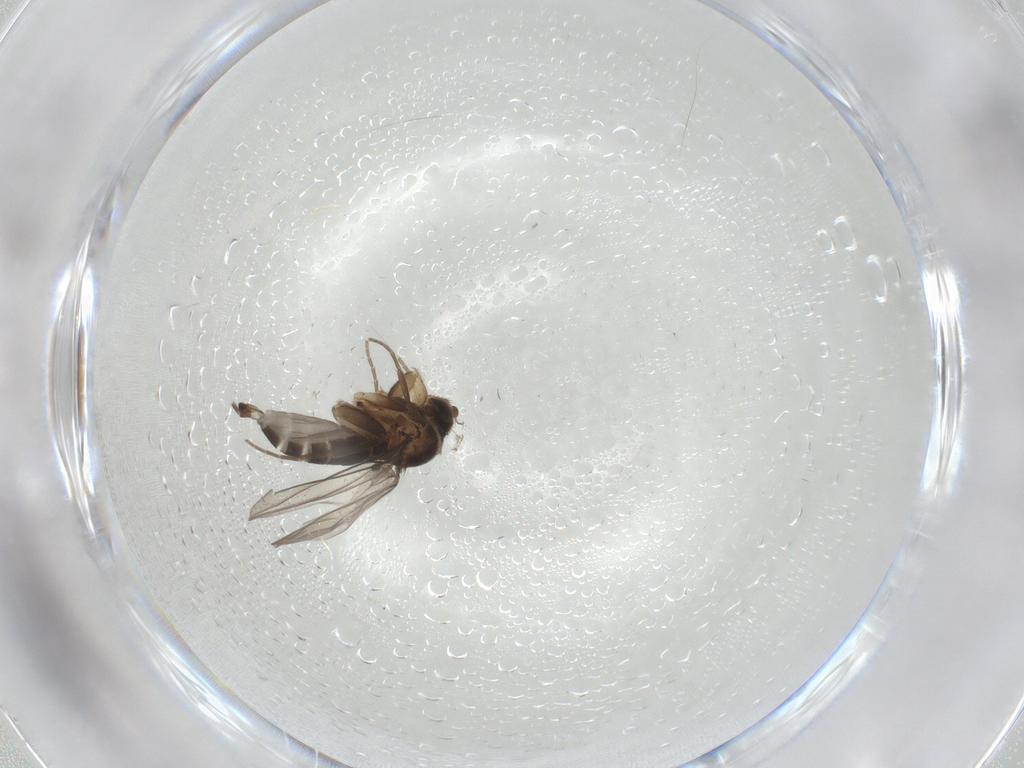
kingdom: Animalia
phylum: Arthropoda
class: Insecta
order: Diptera
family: Phoridae
